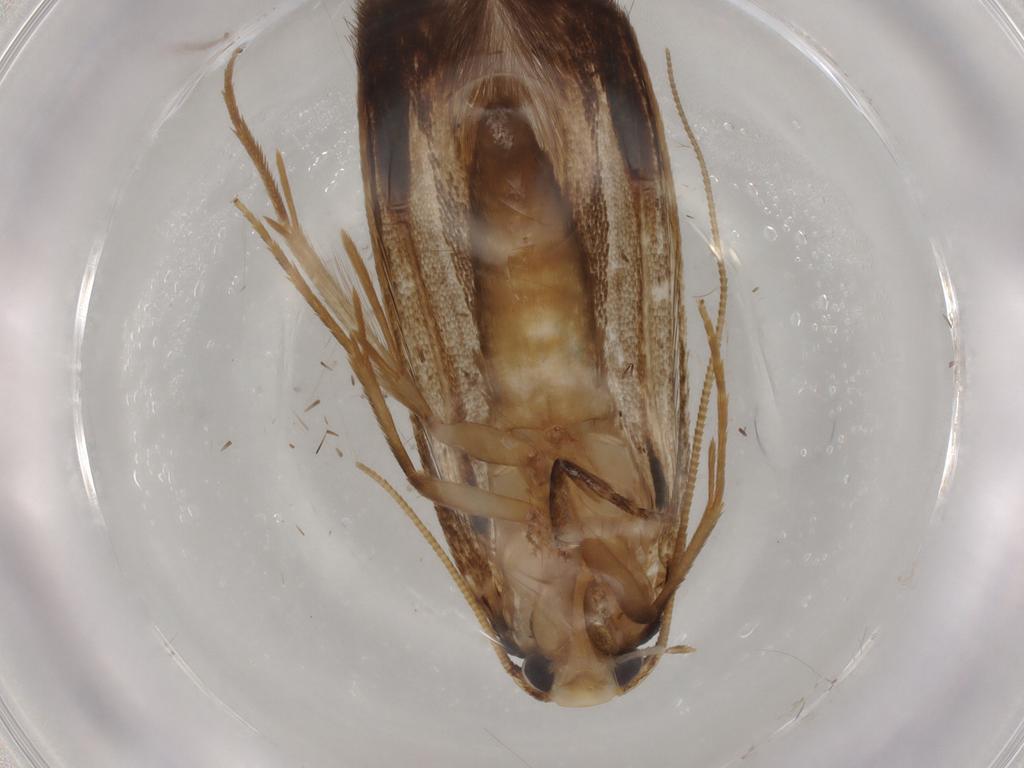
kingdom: Animalia
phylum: Arthropoda
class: Insecta
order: Lepidoptera
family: Tineidae
